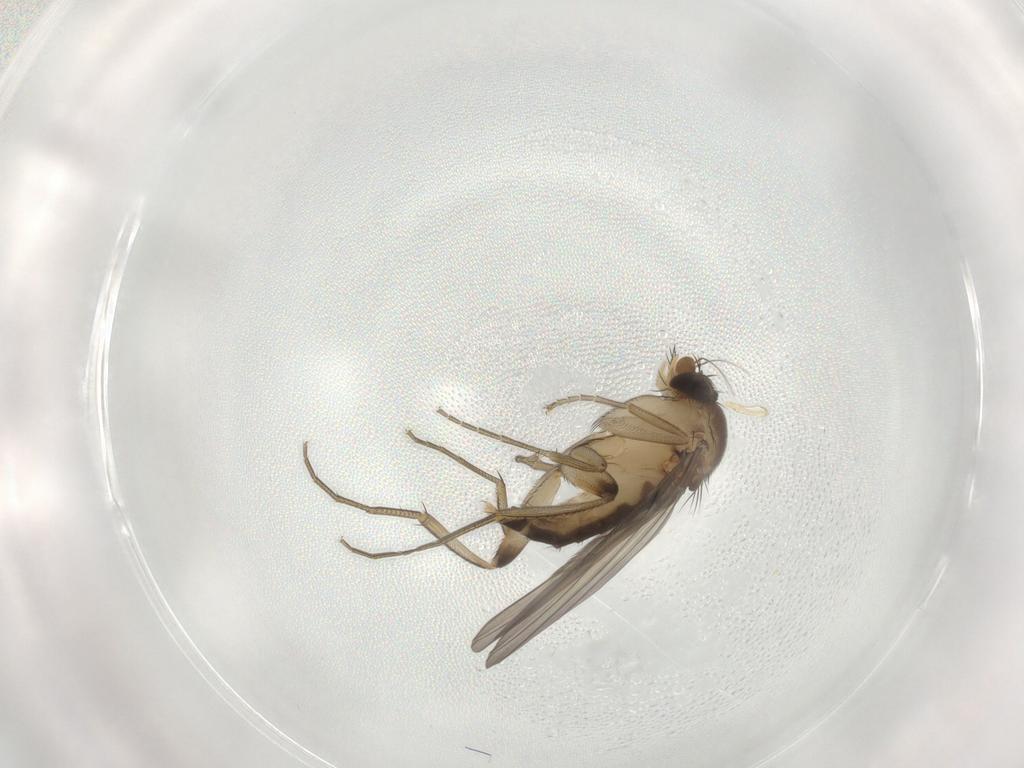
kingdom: Animalia
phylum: Arthropoda
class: Insecta
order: Diptera
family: Phoridae
